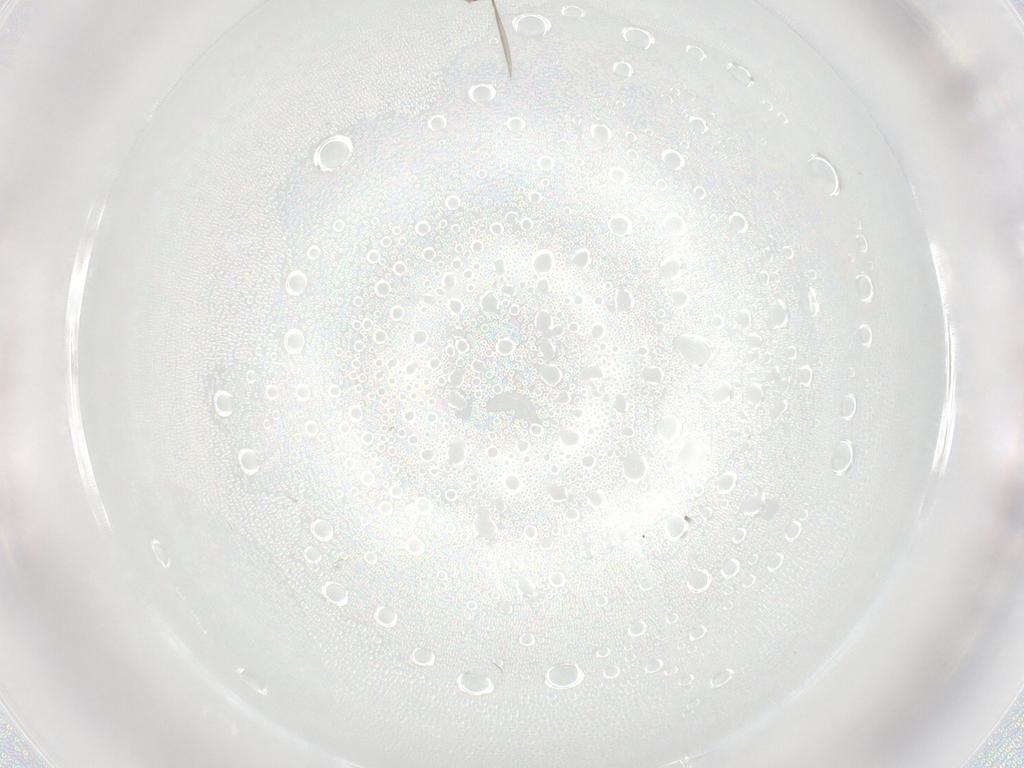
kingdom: Animalia
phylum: Arthropoda
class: Insecta
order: Diptera
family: Cecidomyiidae
